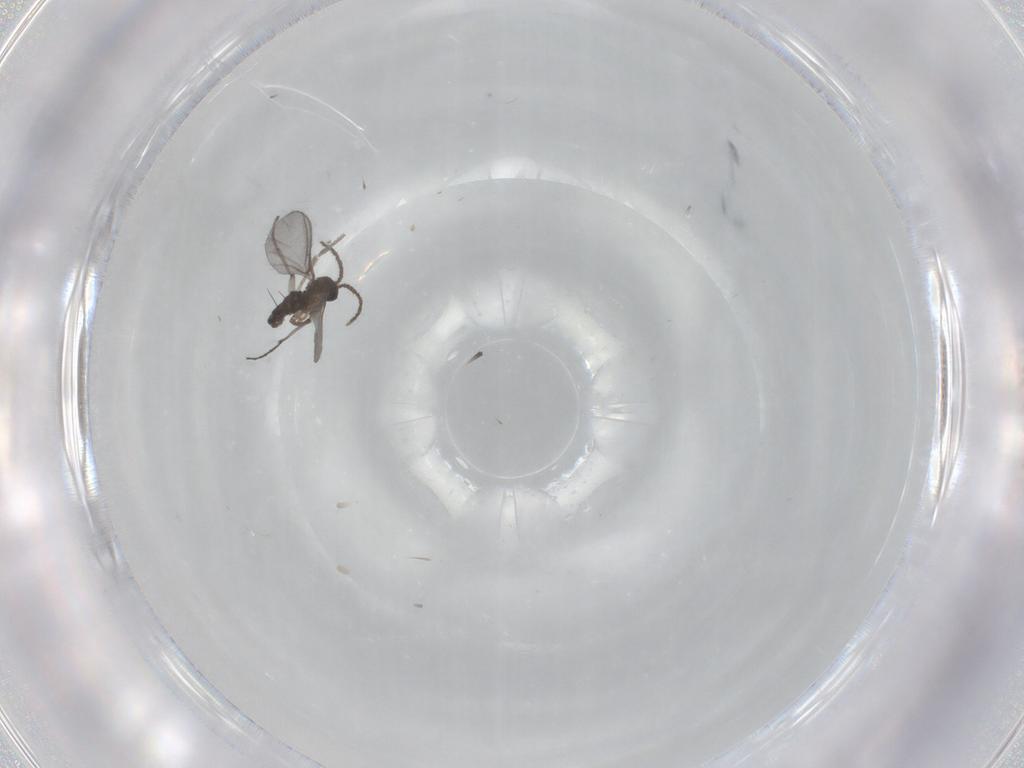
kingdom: Animalia
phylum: Arthropoda
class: Insecta
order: Diptera
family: Sciaridae
